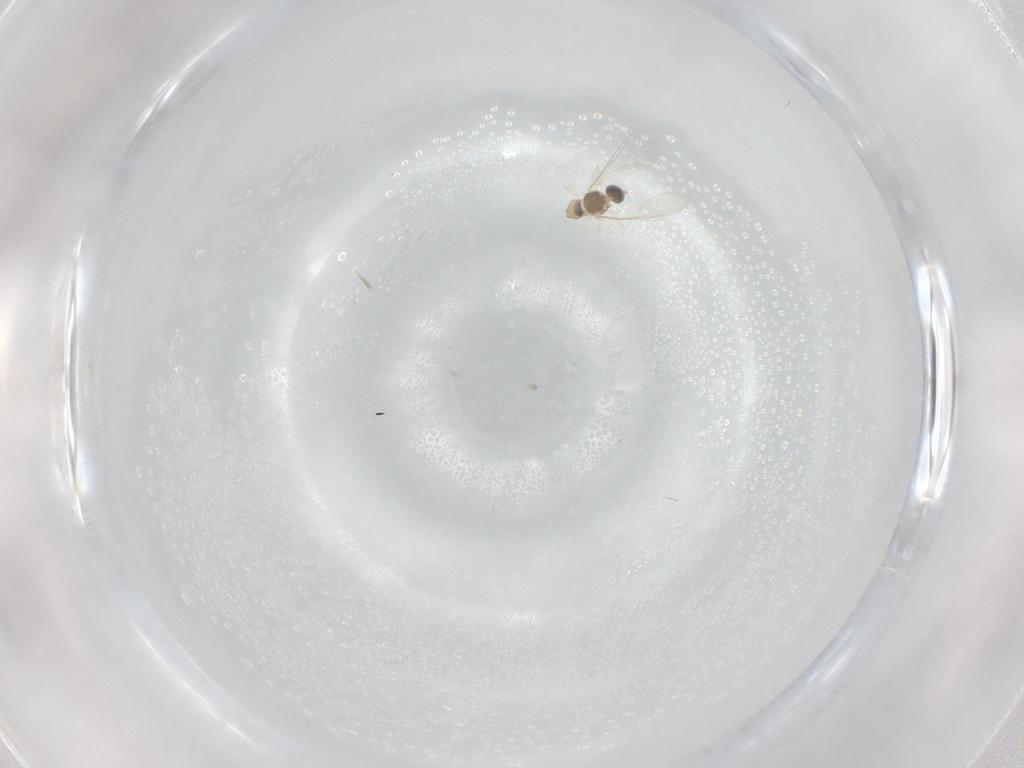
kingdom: Animalia
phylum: Arthropoda
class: Insecta
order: Diptera
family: Cecidomyiidae
